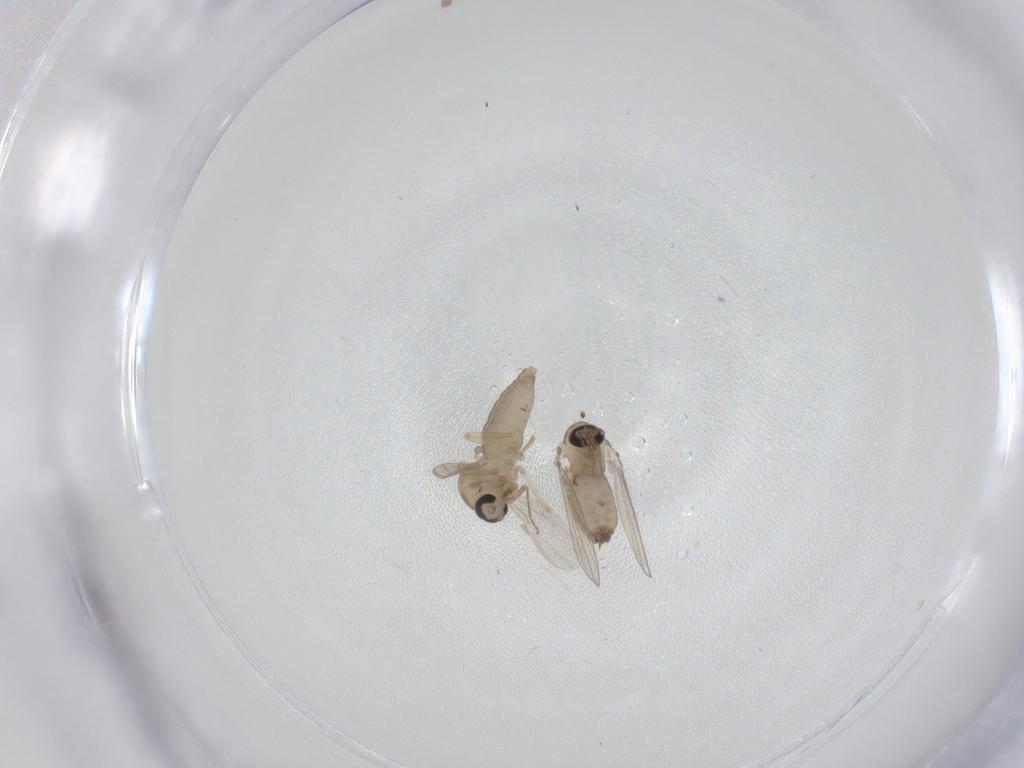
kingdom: Animalia
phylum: Arthropoda
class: Insecta
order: Diptera
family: Psychodidae
